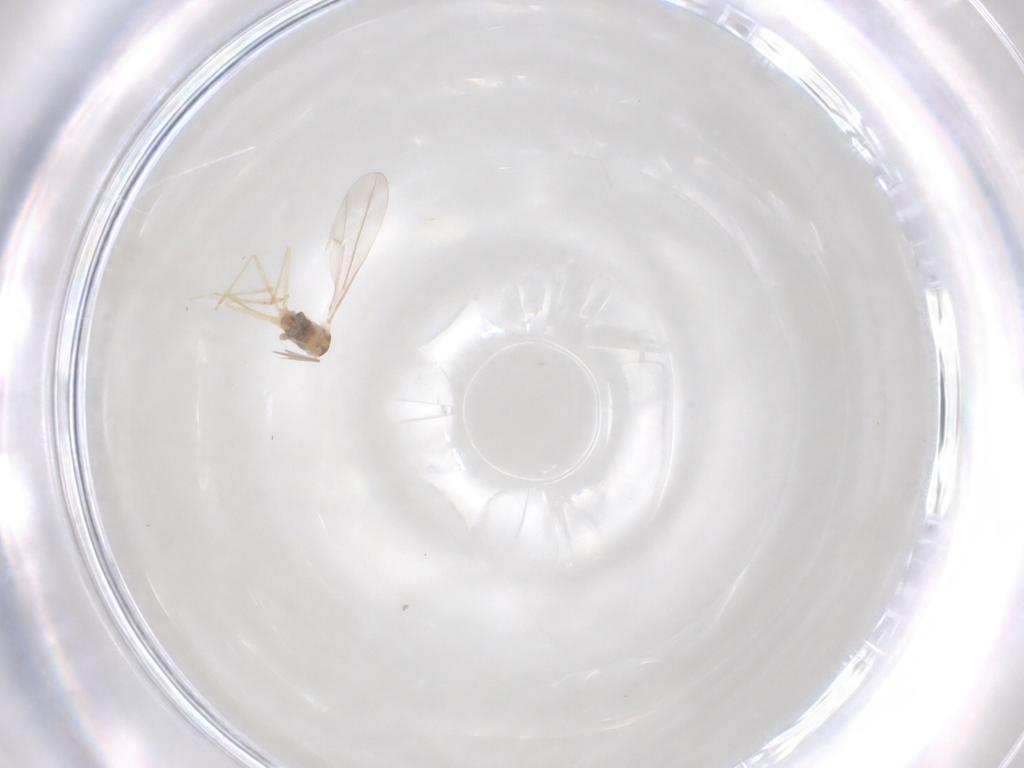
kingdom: Animalia
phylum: Arthropoda
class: Insecta
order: Diptera
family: Cecidomyiidae
